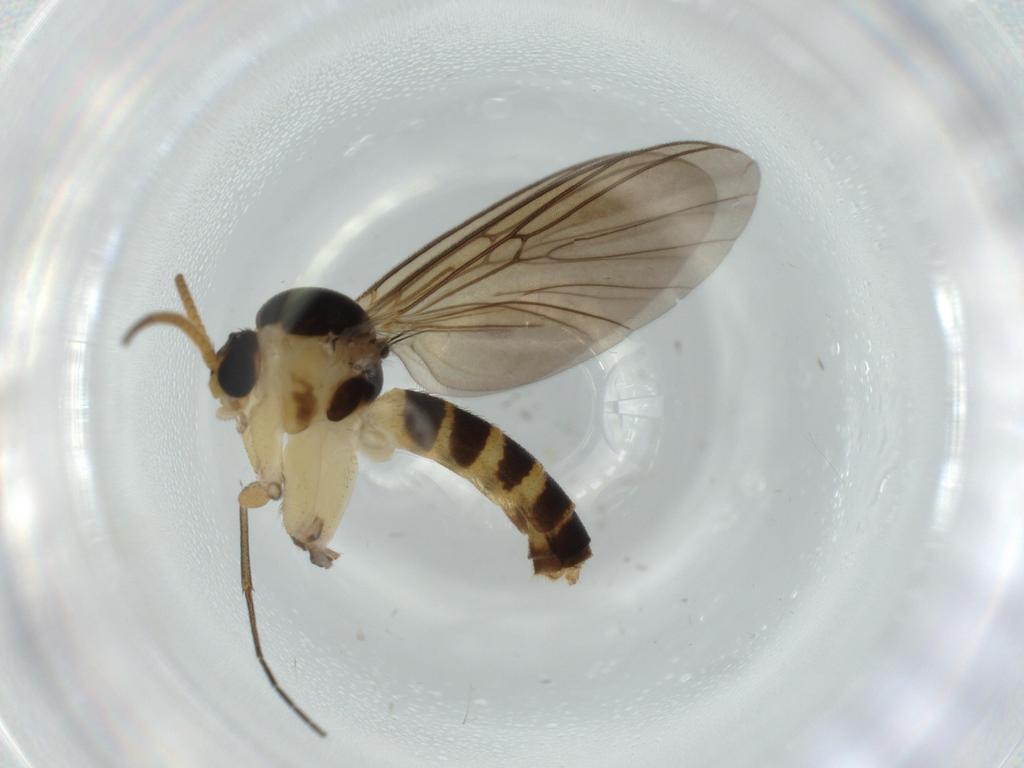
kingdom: Animalia
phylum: Arthropoda
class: Insecta
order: Diptera
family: Mycetophilidae
